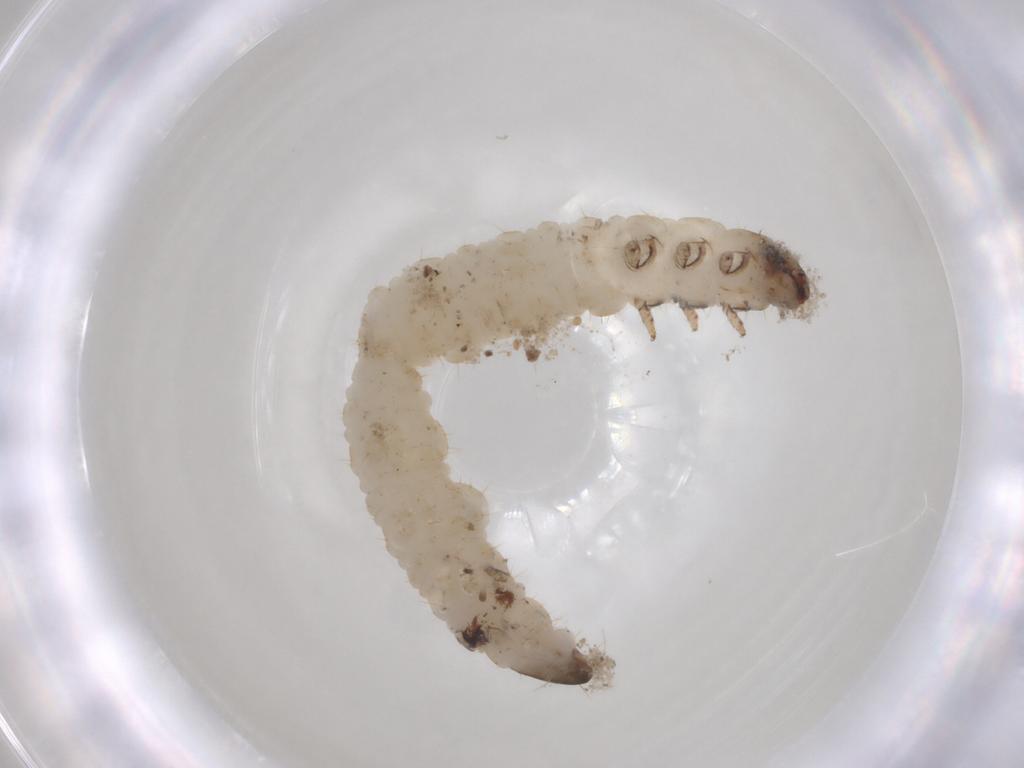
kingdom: Animalia
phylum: Arthropoda
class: Insecta
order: Coleoptera
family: Chrysomelidae
